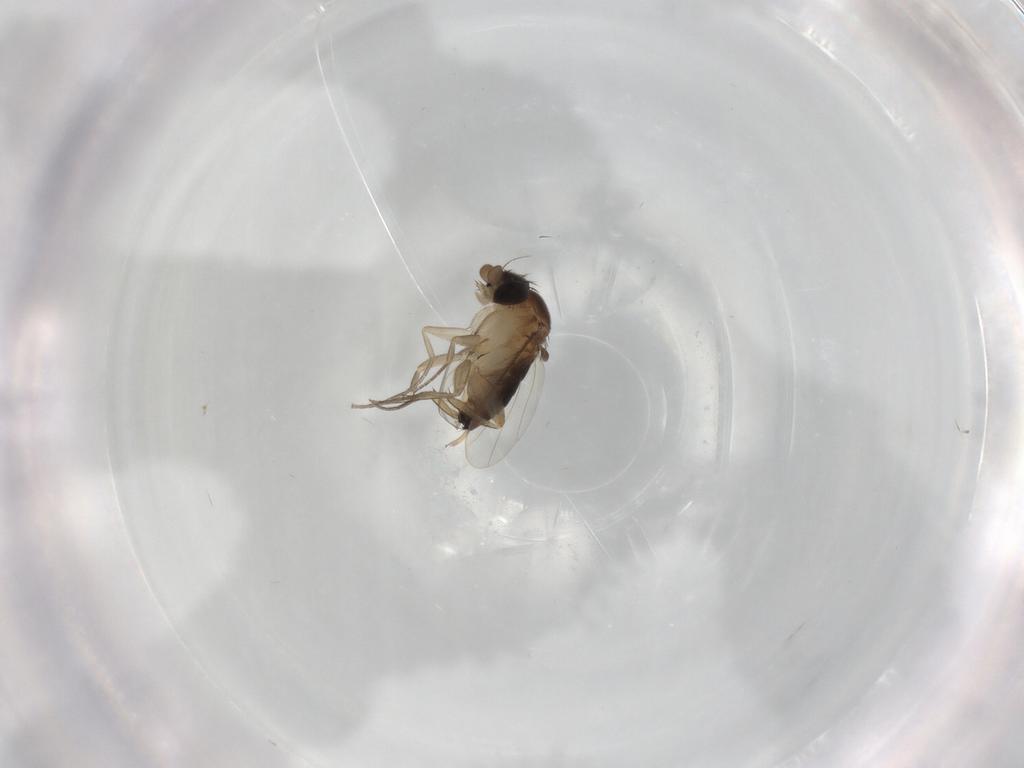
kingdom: Animalia
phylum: Arthropoda
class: Insecta
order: Diptera
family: Phoridae
